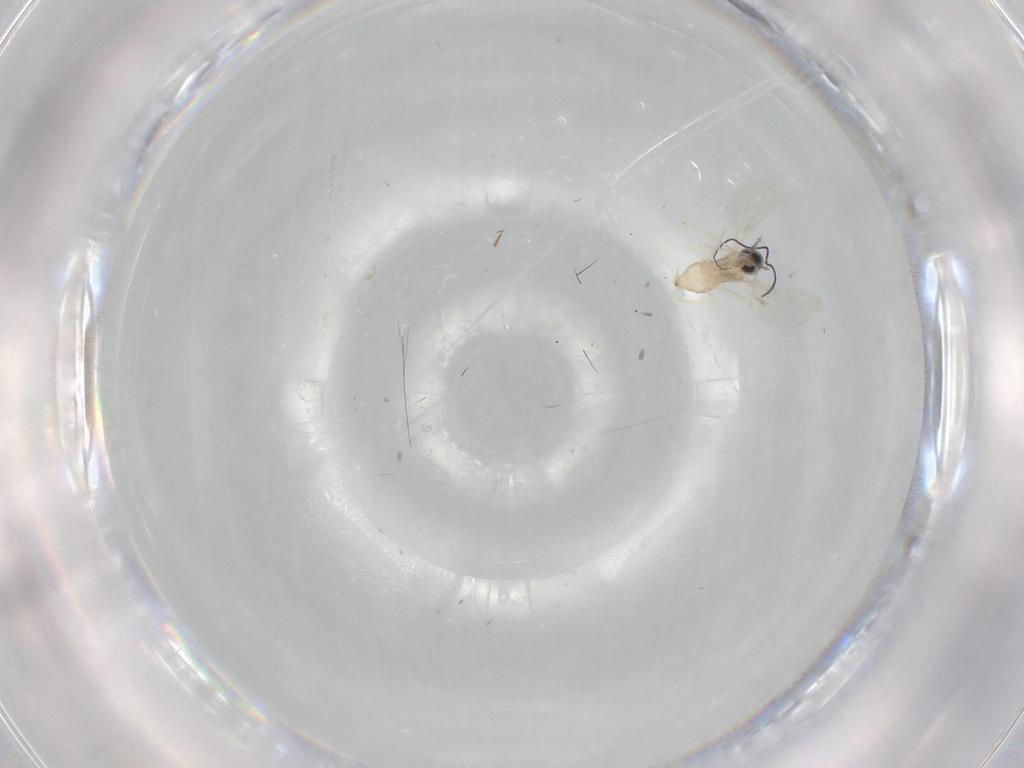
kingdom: Animalia
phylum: Arthropoda
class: Insecta
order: Diptera
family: Cecidomyiidae
